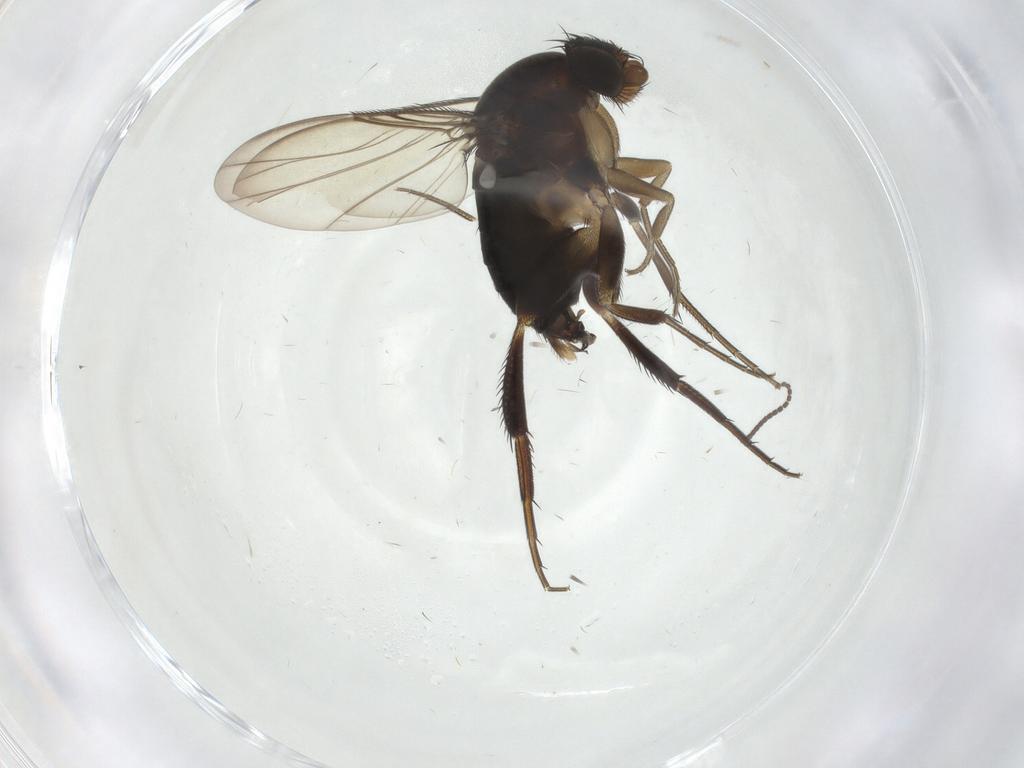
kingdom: Animalia
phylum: Arthropoda
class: Insecta
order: Diptera
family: Phoridae
